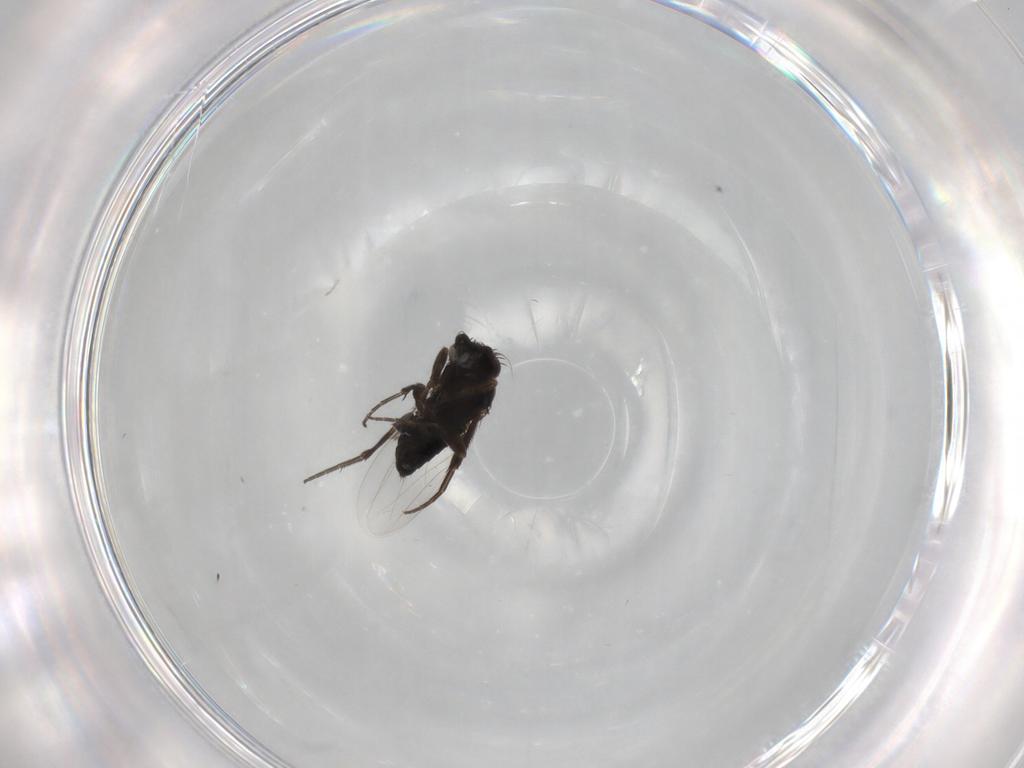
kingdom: Animalia
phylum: Arthropoda
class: Insecta
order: Diptera
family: Phoridae
